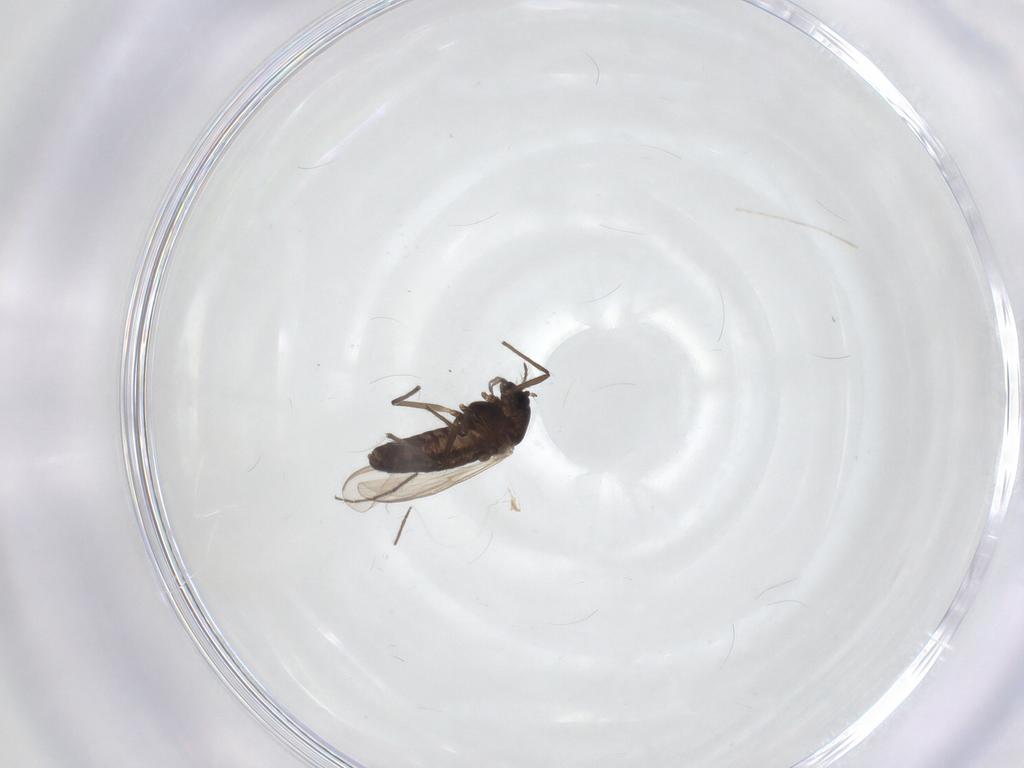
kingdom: Animalia
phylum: Arthropoda
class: Insecta
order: Diptera
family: Chironomidae
